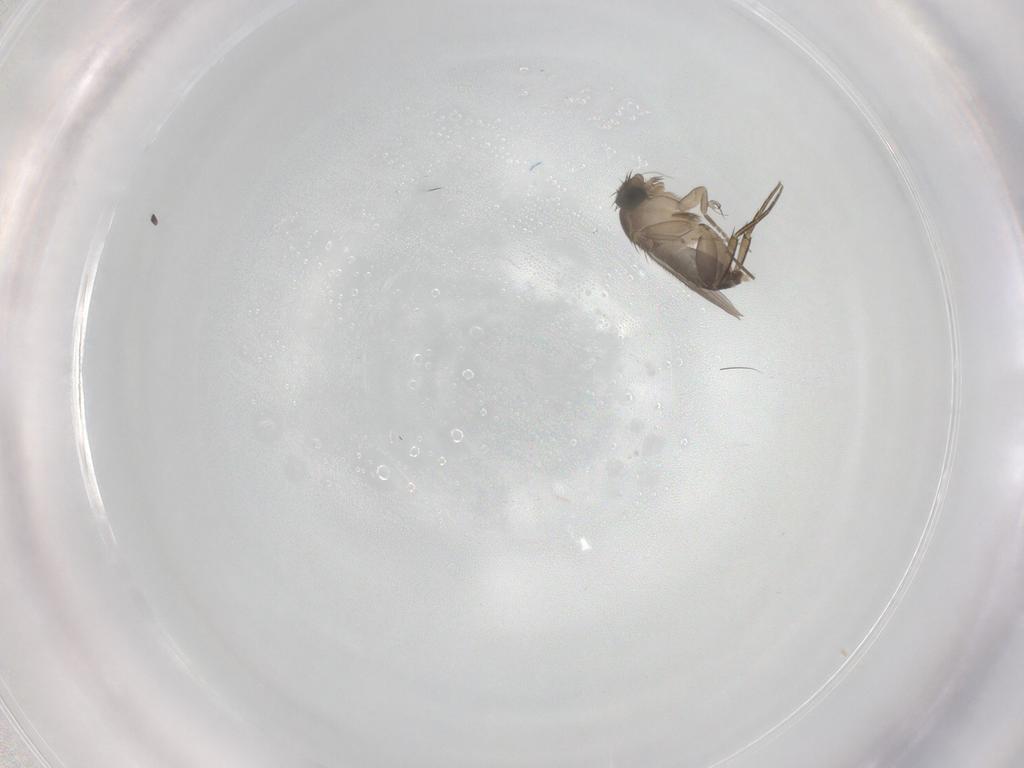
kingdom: Animalia
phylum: Arthropoda
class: Insecta
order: Diptera
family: Phoridae
